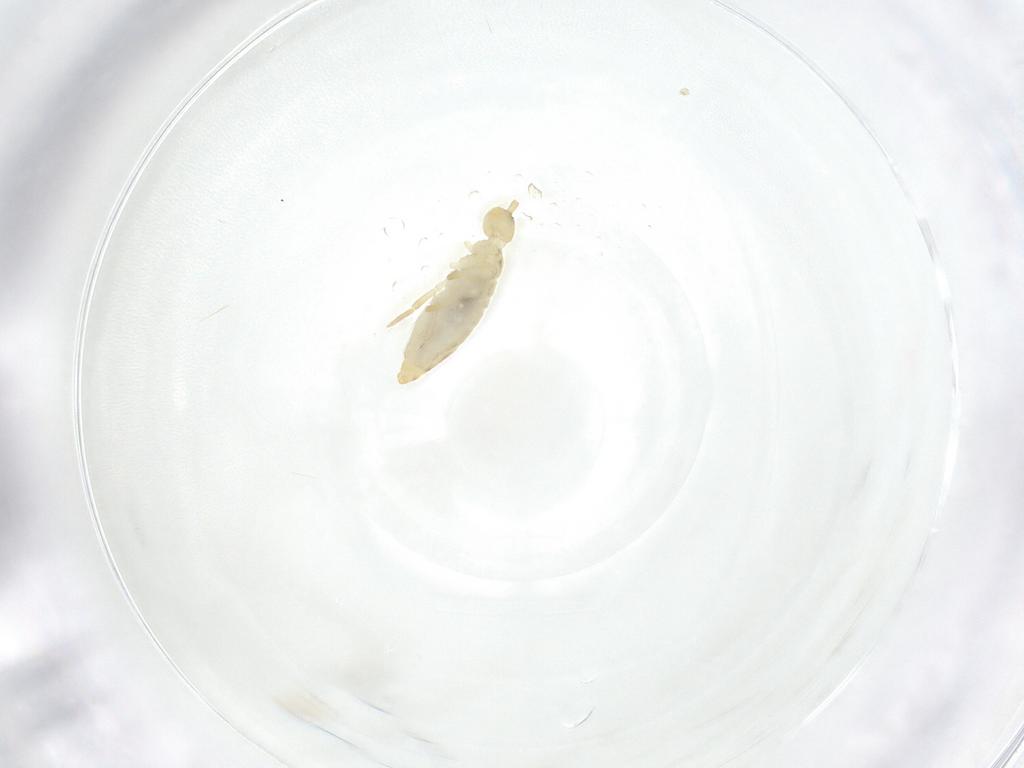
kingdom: Animalia
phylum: Arthropoda
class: Collembola
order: Entomobryomorpha
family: Entomobryidae
